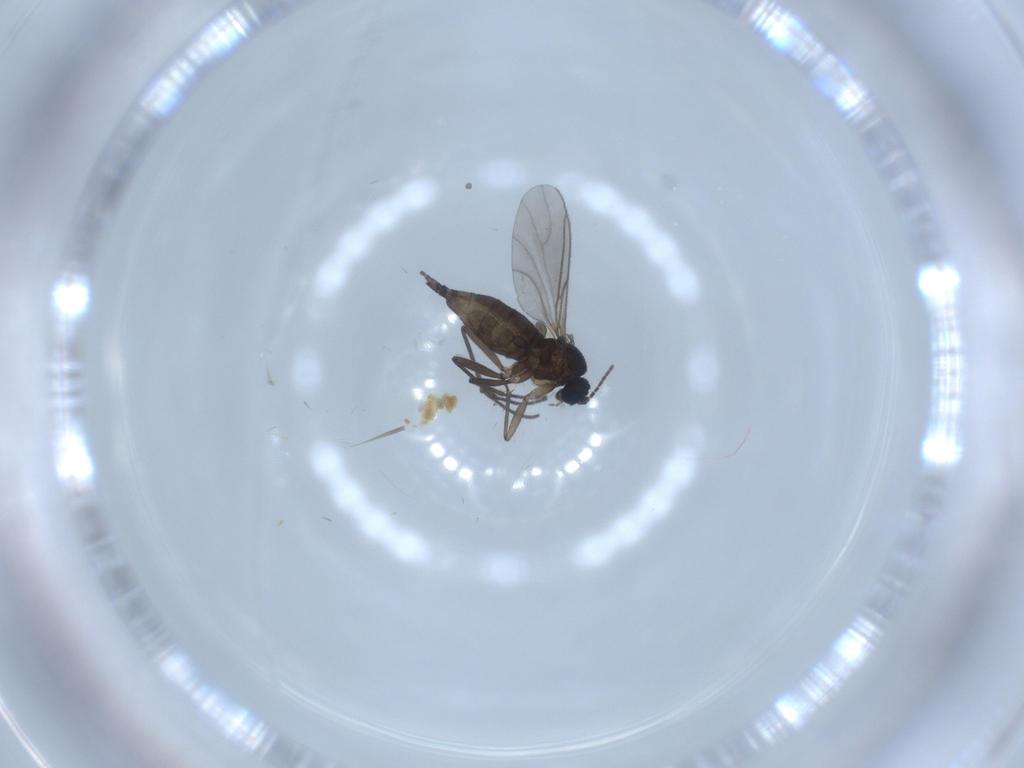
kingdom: Animalia
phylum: Arthropoda
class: Insecta
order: Diptera
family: Sciaridae
